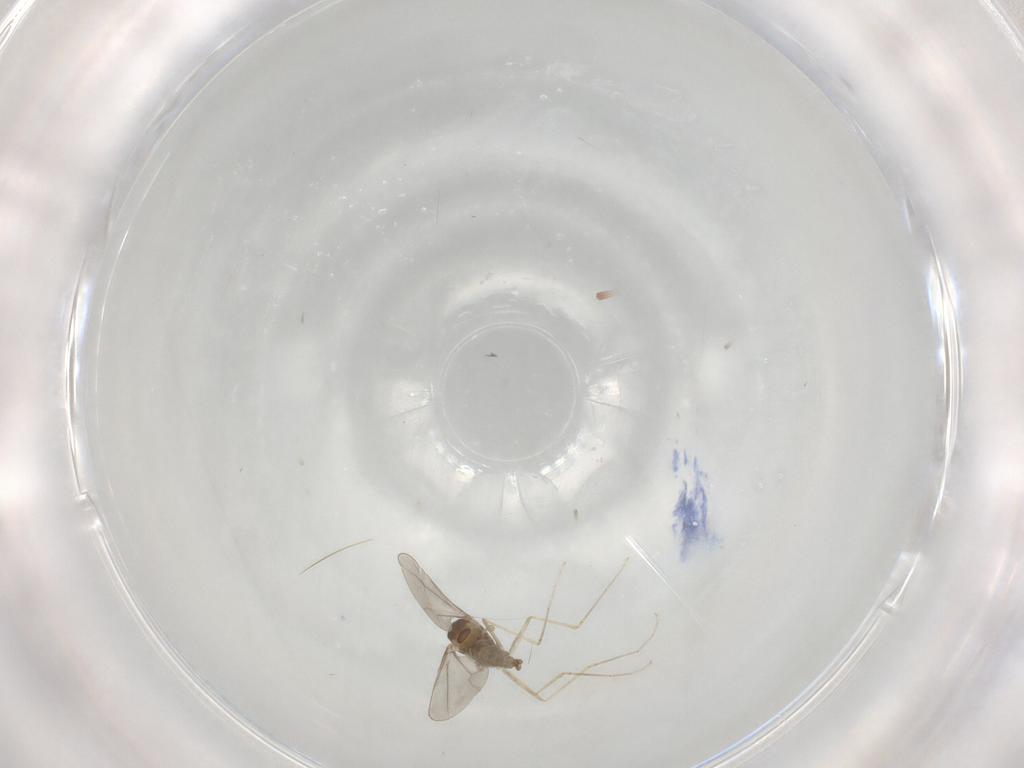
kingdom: Animalia
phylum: Arthropoda
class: Insecta
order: Diptera
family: Cecidomyiidae
